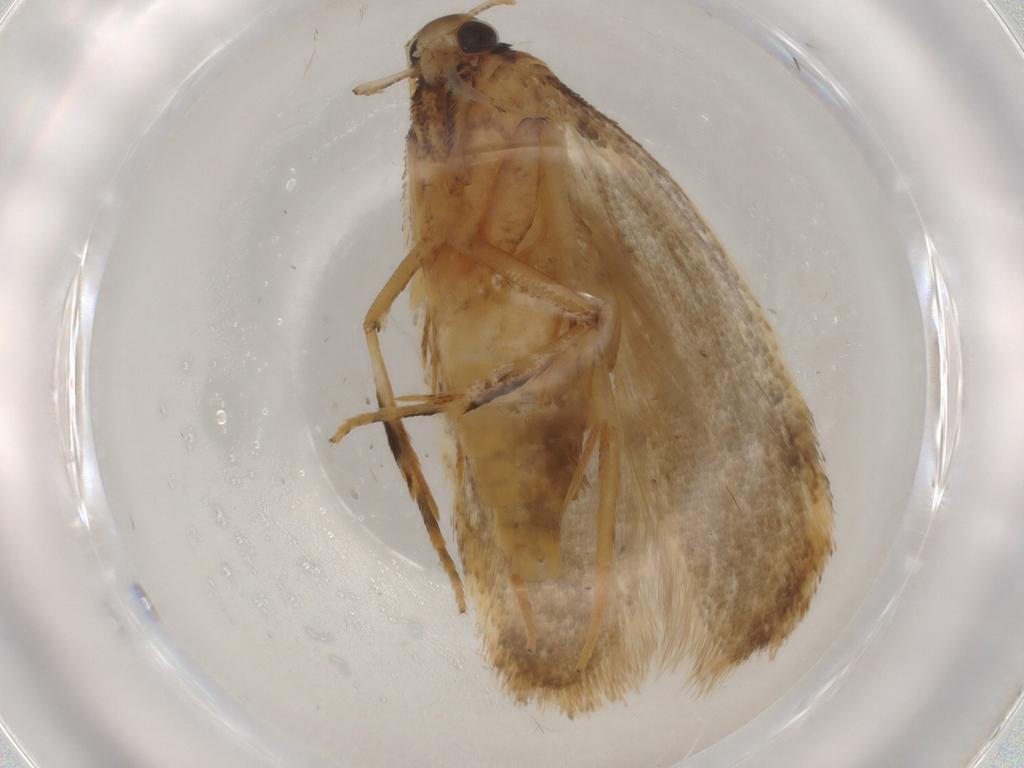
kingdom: Animalia
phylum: Arthropoda
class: Insecta
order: Lepidoptera
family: Gelechiidae
